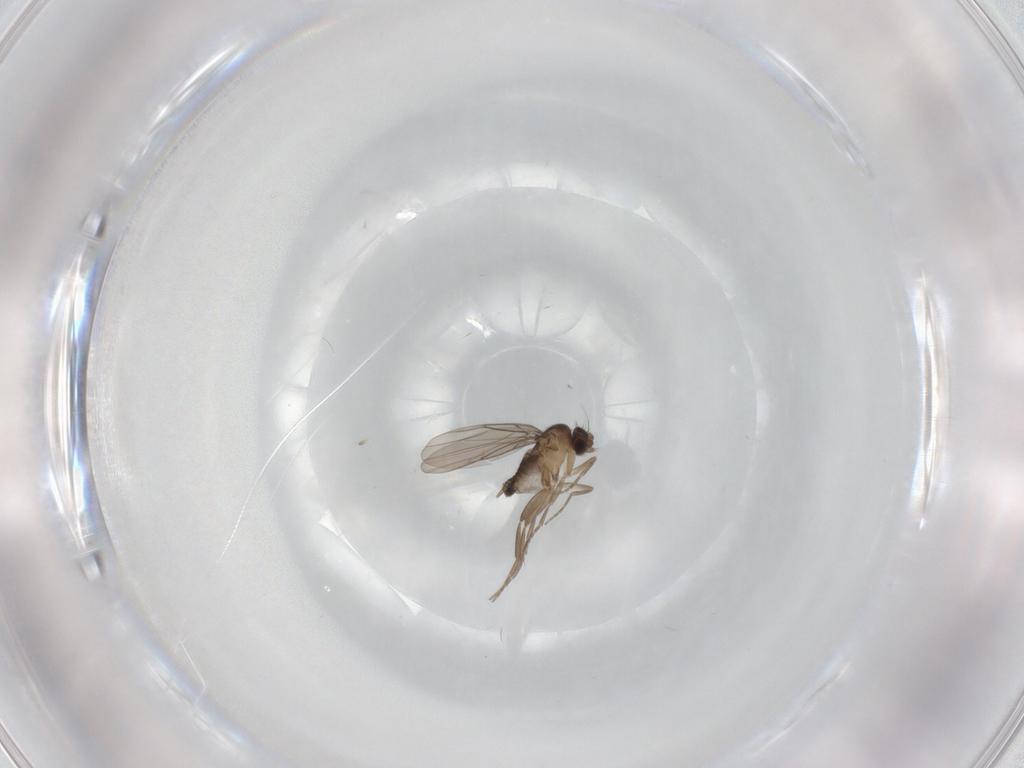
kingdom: Animalia
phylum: Arthropoda
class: Insecta
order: Diptera
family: Phoridae
